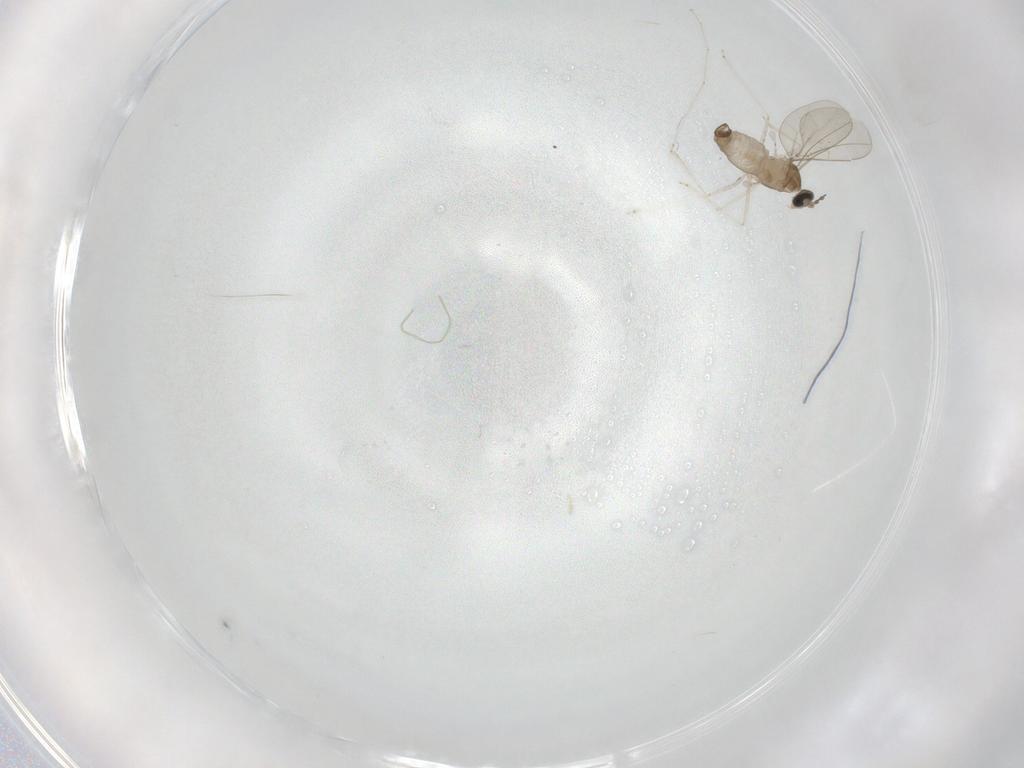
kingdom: Animalia
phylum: Arthropoda
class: Insecta
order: Diptera
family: Cecidomyiidae
